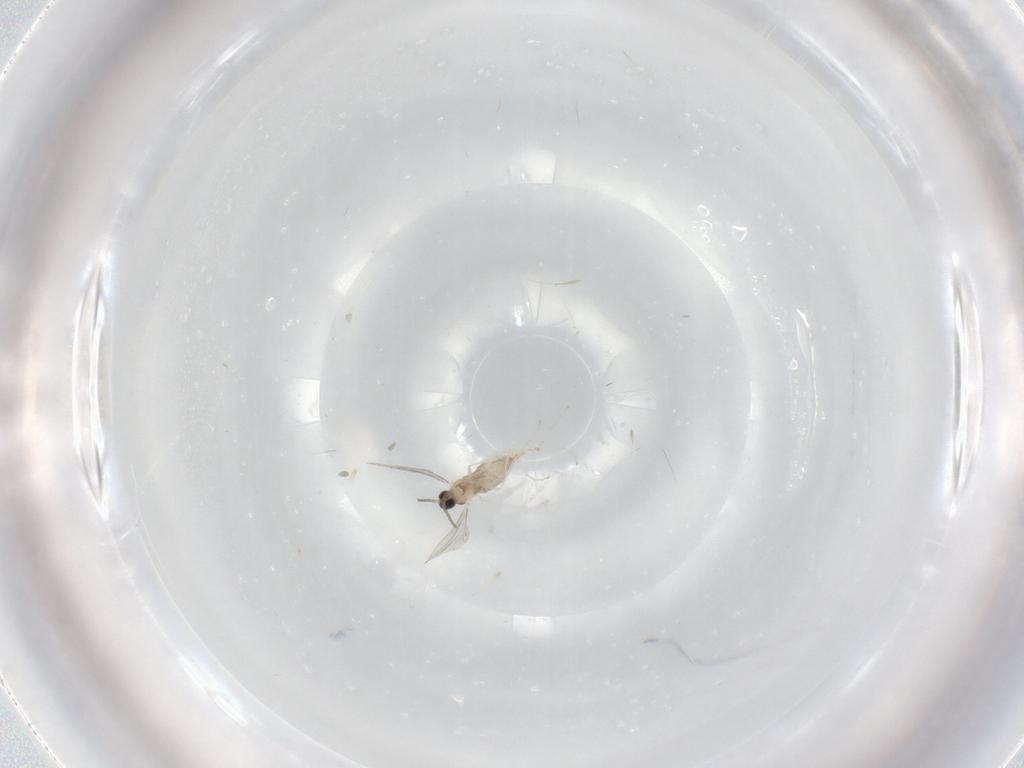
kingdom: Animalia
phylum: Arthropoda
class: Insecta
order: Diptera
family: Cecidomyiidae
